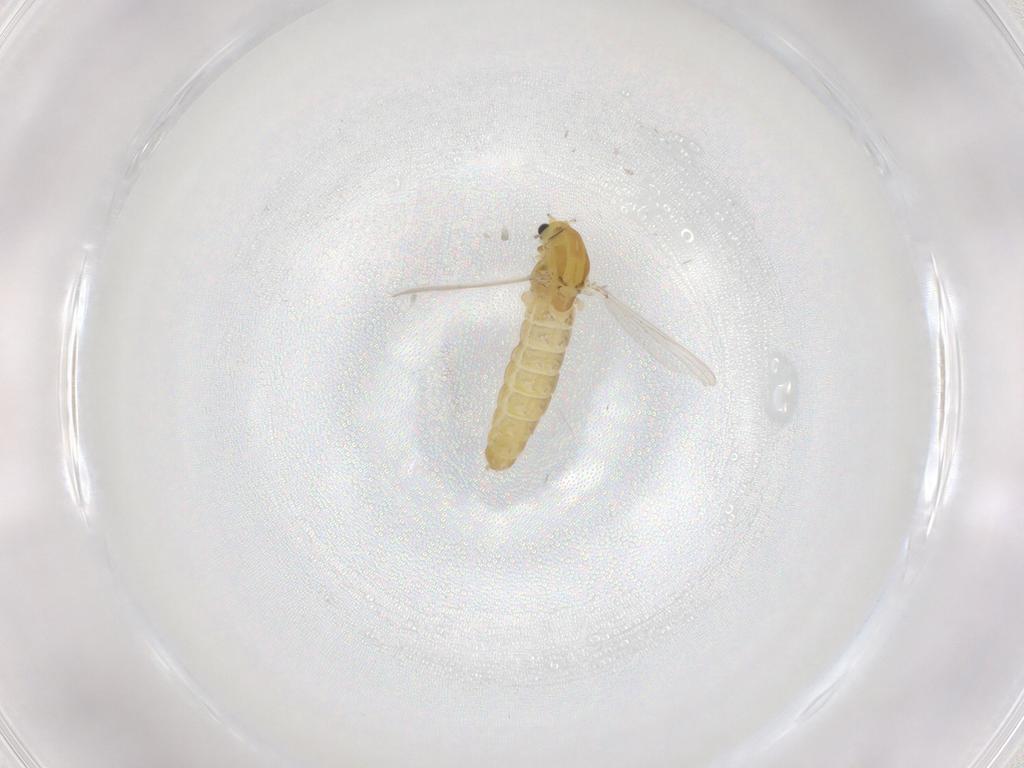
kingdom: Animalia
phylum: Arthropoda
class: Insecta
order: Diptera
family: Chironomidae
